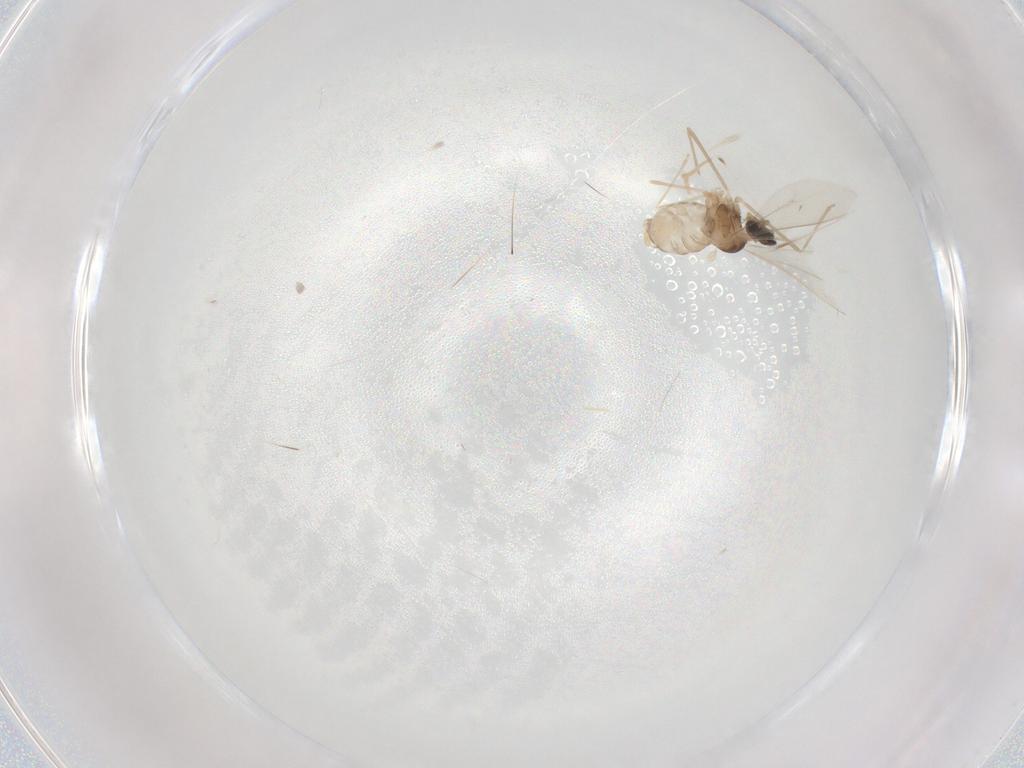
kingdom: Animalia
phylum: Arthropoda
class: Insecta
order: Diptera
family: Cecidomyiidae
